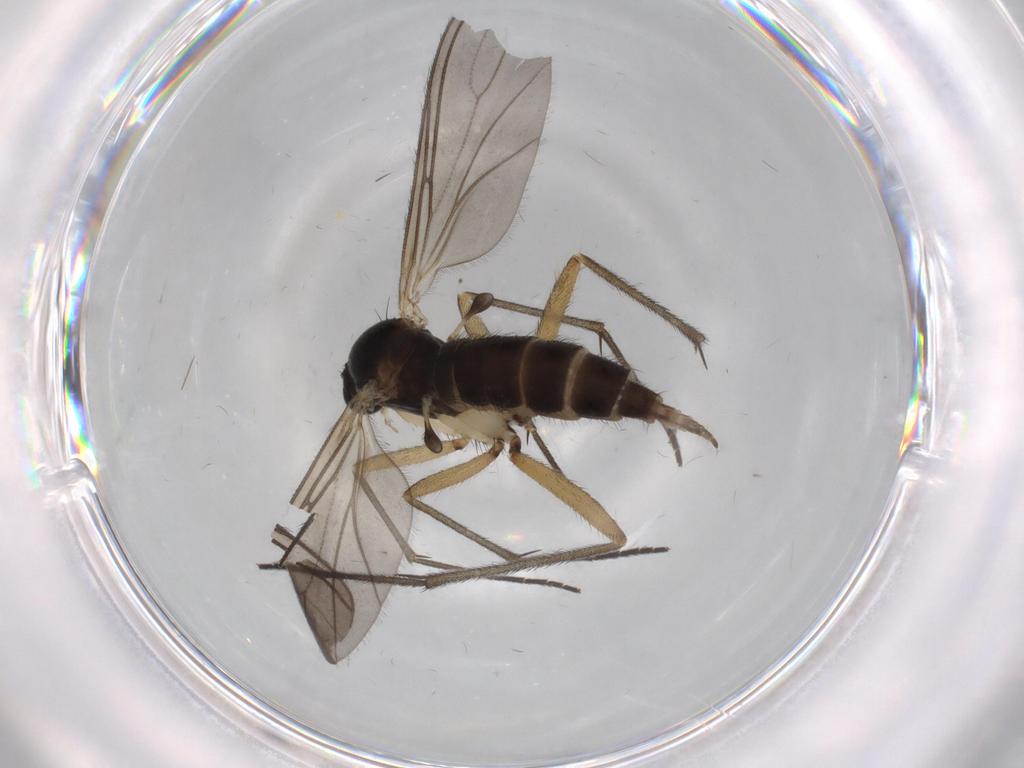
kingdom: Animalia
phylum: Arthropoda
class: Insecta
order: Diptera
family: Sciaridae
